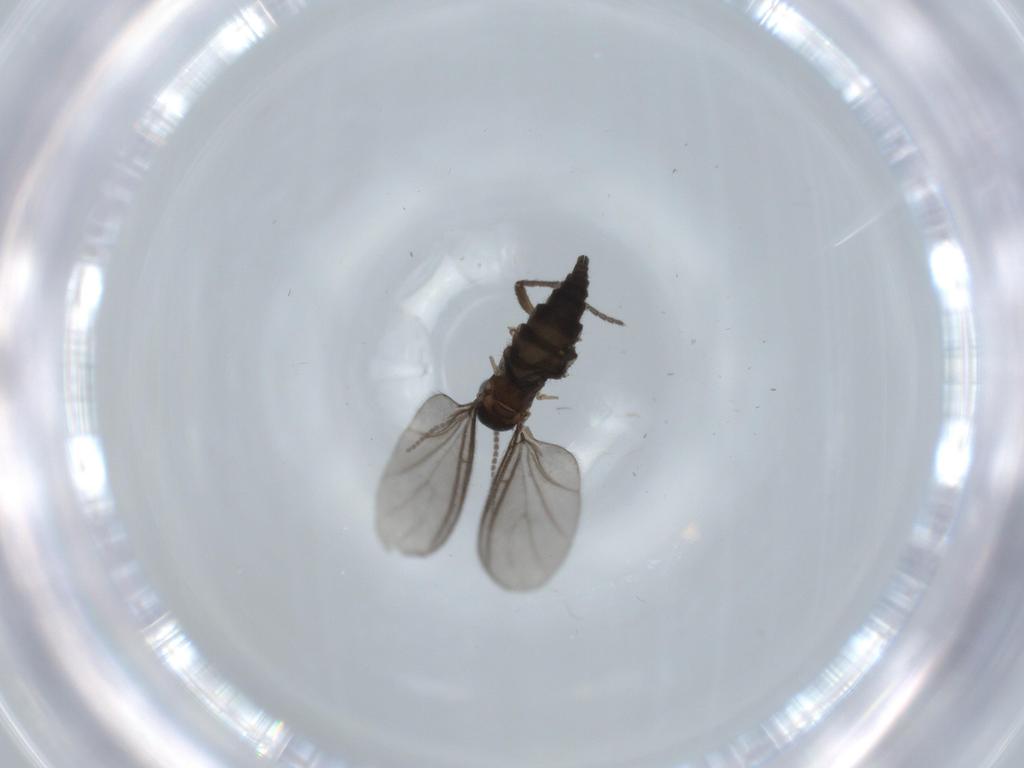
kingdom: Animalia
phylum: Arthropoda
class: Insecta
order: Diptera
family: Sciaridae
